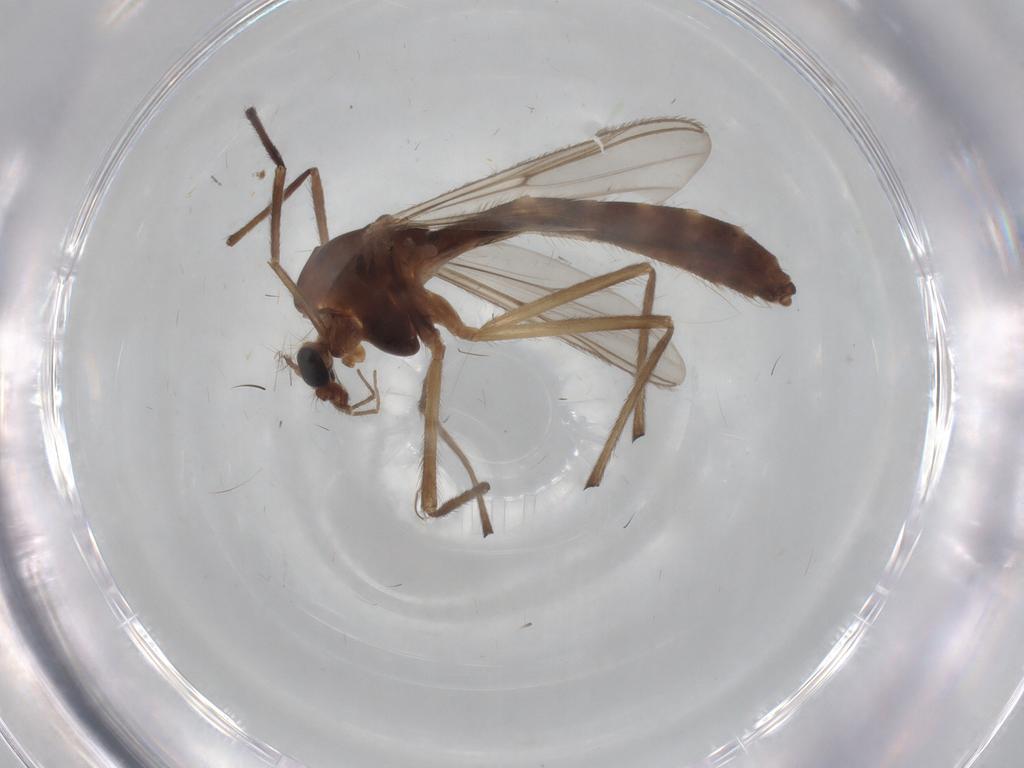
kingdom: Animalia
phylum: Arthropoda
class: Insecta
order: Diptera
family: Chironomidae
